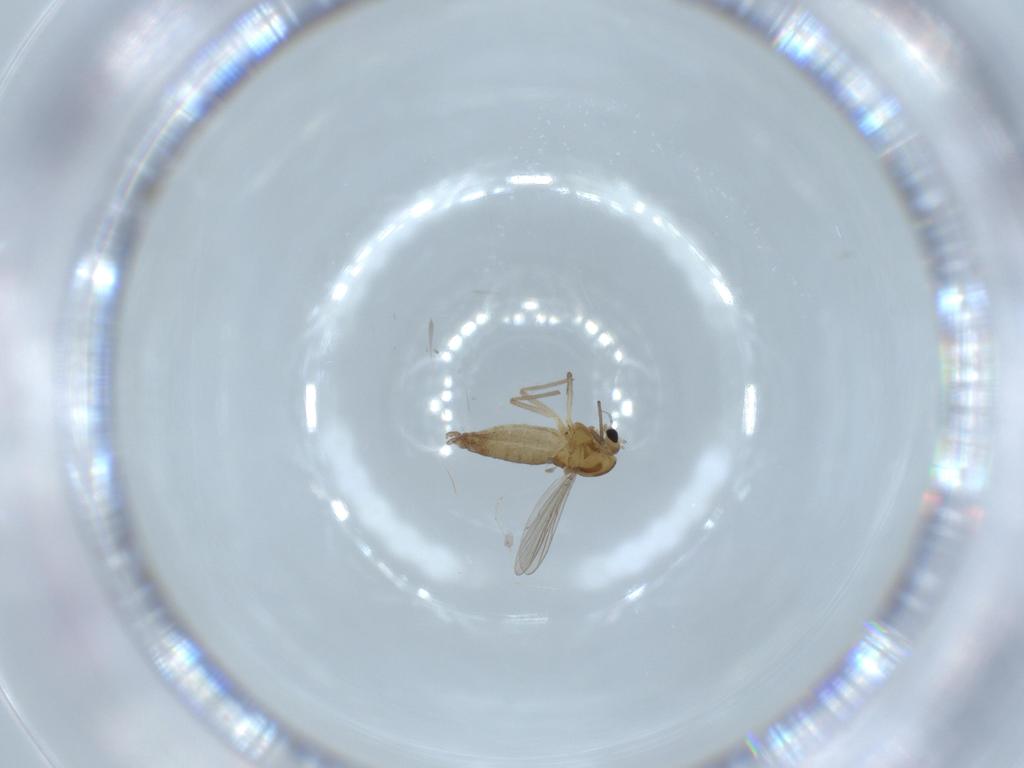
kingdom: Animalia
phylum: Arthropoda
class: Insecta
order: Diptera
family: Chironomidae
